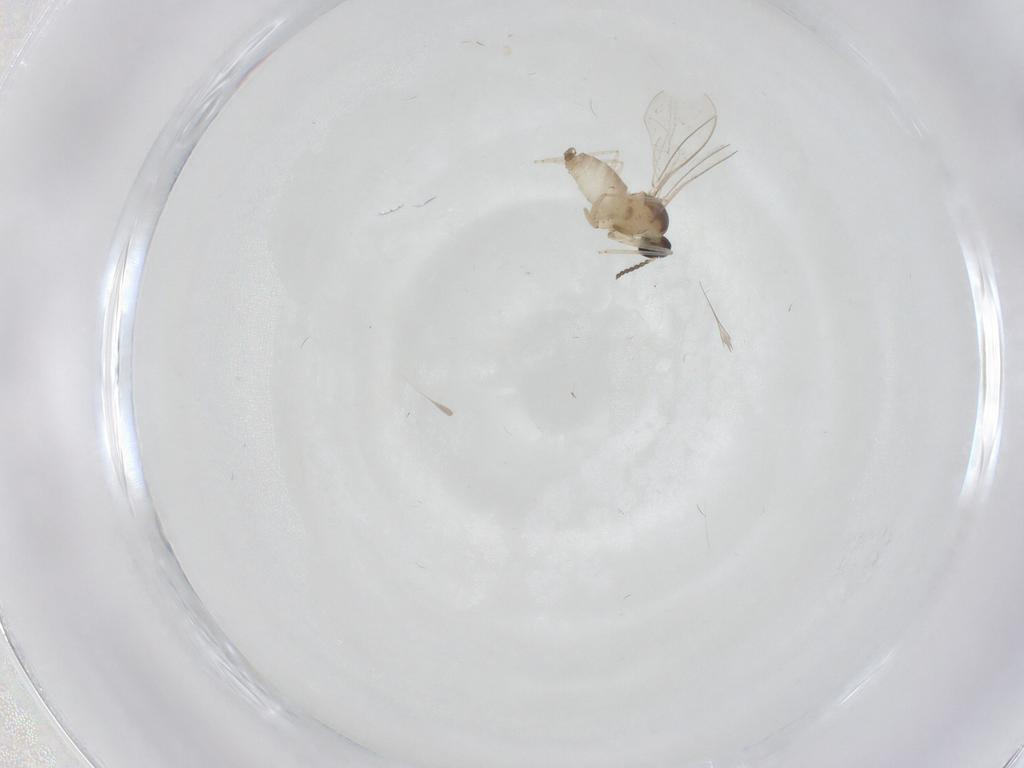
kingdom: Animalia
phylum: Arthropoda
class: Insecta
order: Diptera
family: Cecidomyiidae
